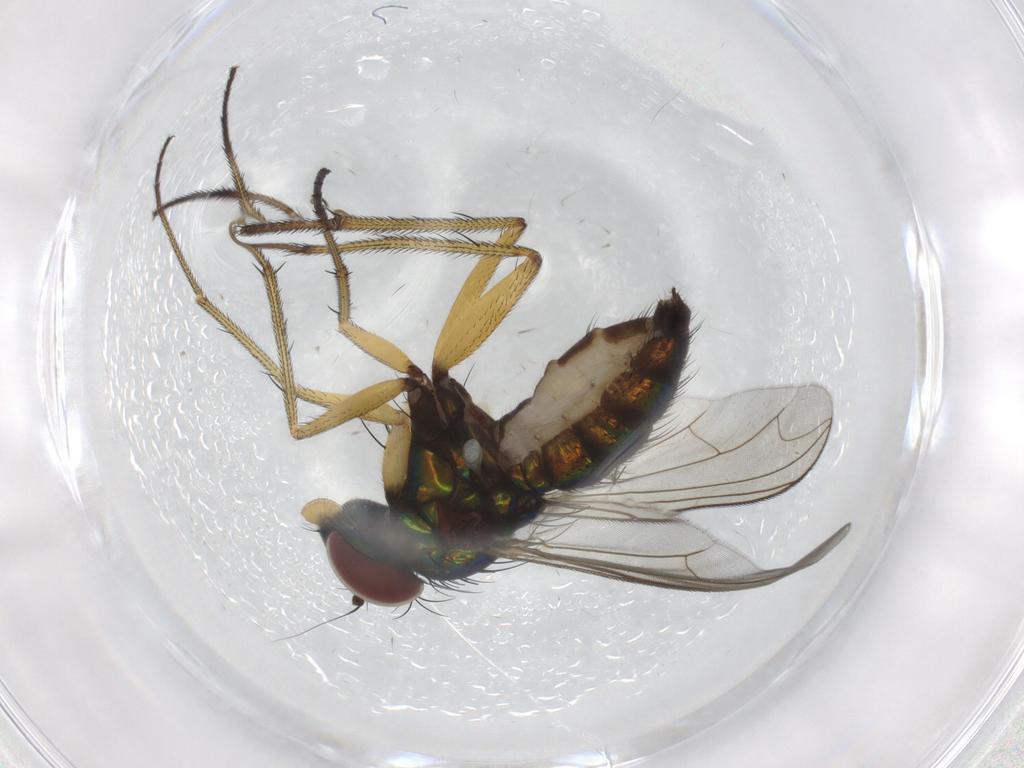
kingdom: Animalia
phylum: Arthropoda
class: Insecta
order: Diptera
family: Dolichopodidae
